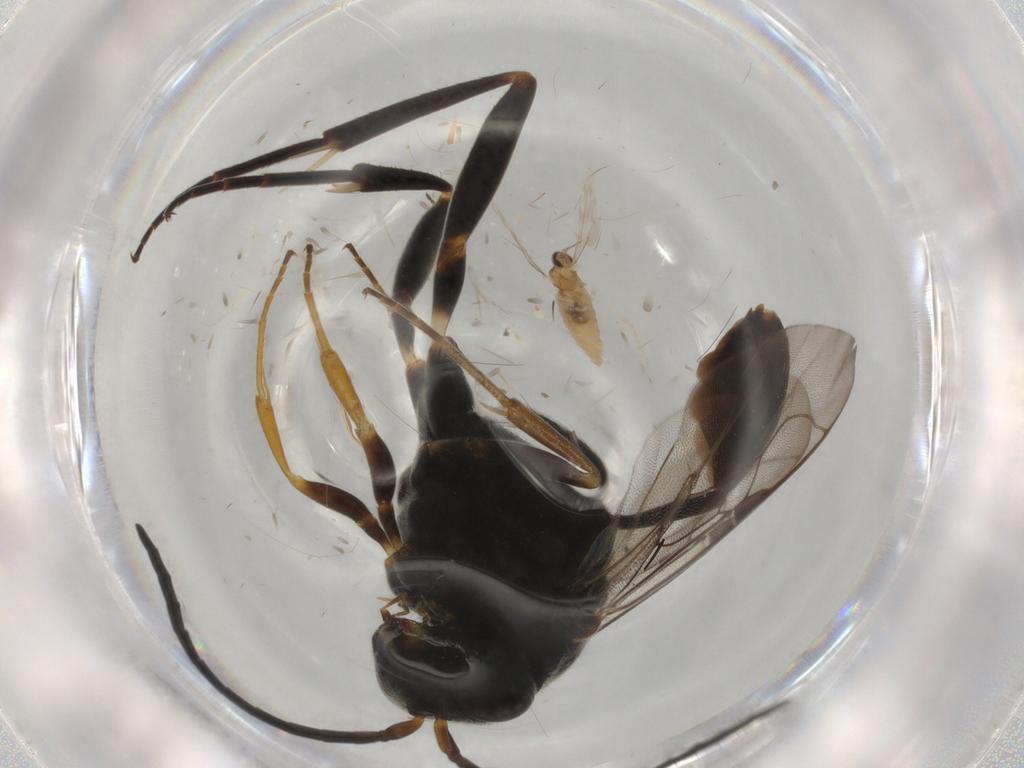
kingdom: Animalia
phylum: Arthropoda
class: Insecta
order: Diptera
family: Cecidomyiidae
